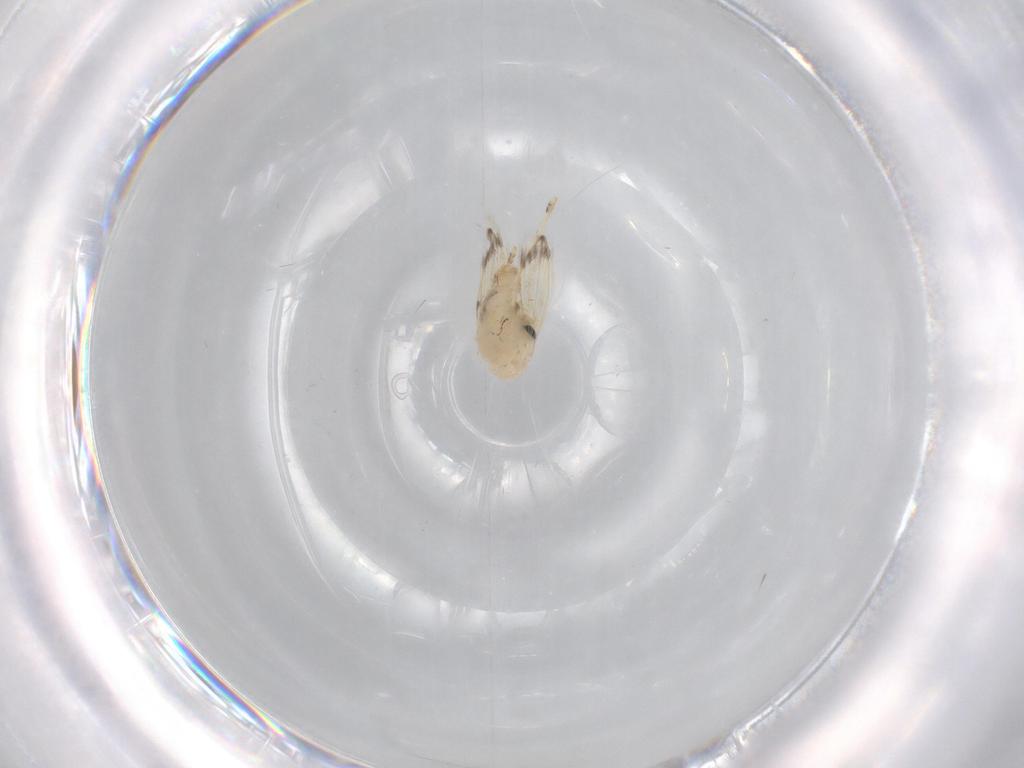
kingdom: Animalia
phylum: Arthropoda
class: Insecta
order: Diptera
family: Psychodidae
